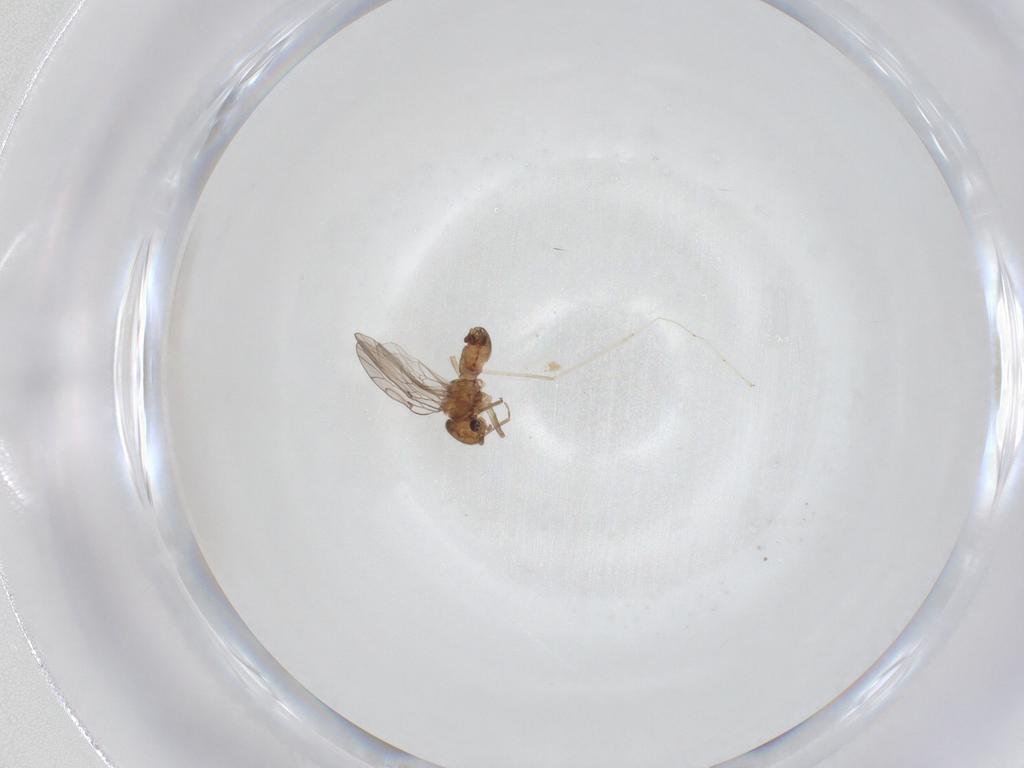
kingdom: Animalia
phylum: Arthropoda
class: Insecta
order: Psocodea
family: Ectopsocidae
